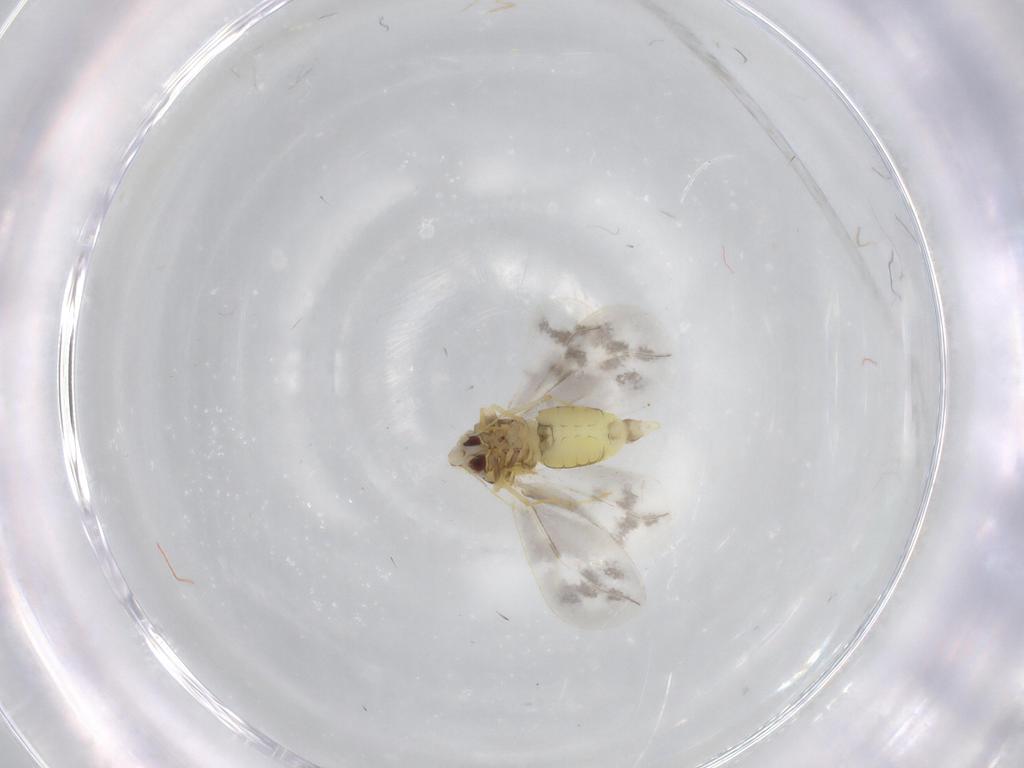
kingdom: Animalia
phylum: Arthropoda
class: Insecta
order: Hemiptera
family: Aleyrodidae
